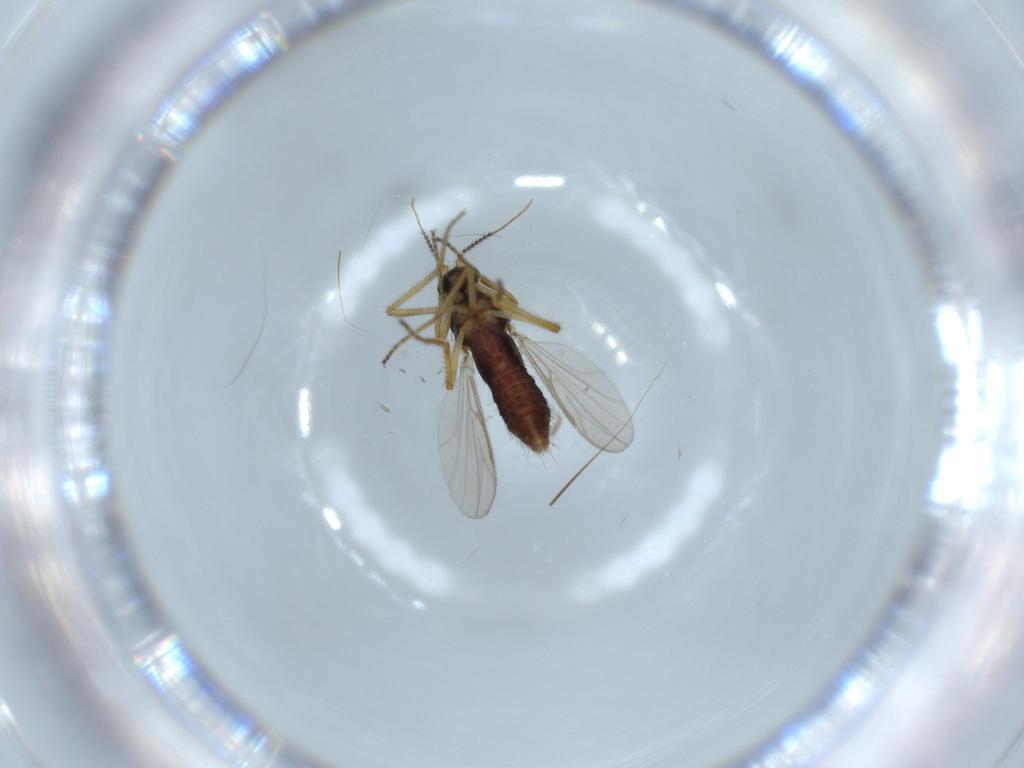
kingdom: Animalia
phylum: Arthropoda
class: Insecta
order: Diptera
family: Ceratopogonidae
